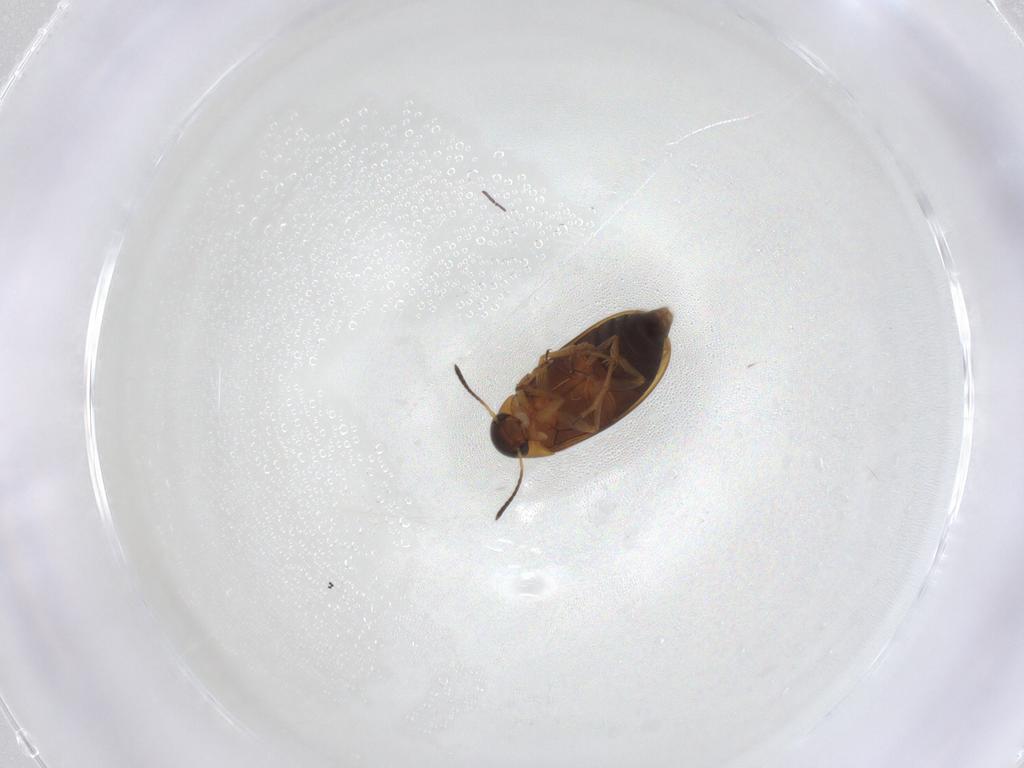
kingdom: Animalia
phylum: Arthropoda
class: Insecta
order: Coleoptera
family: Scraptiidae
